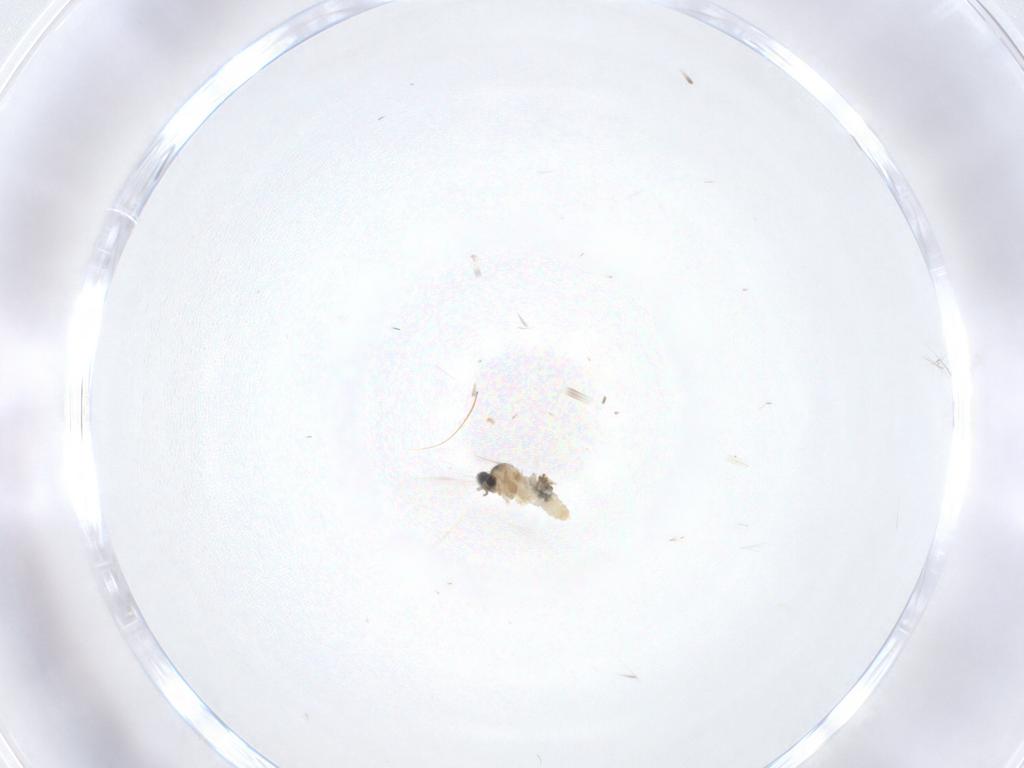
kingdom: Animalia
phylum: Arthropoda
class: Insecta
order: Diptera
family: Cecidomyiidae
